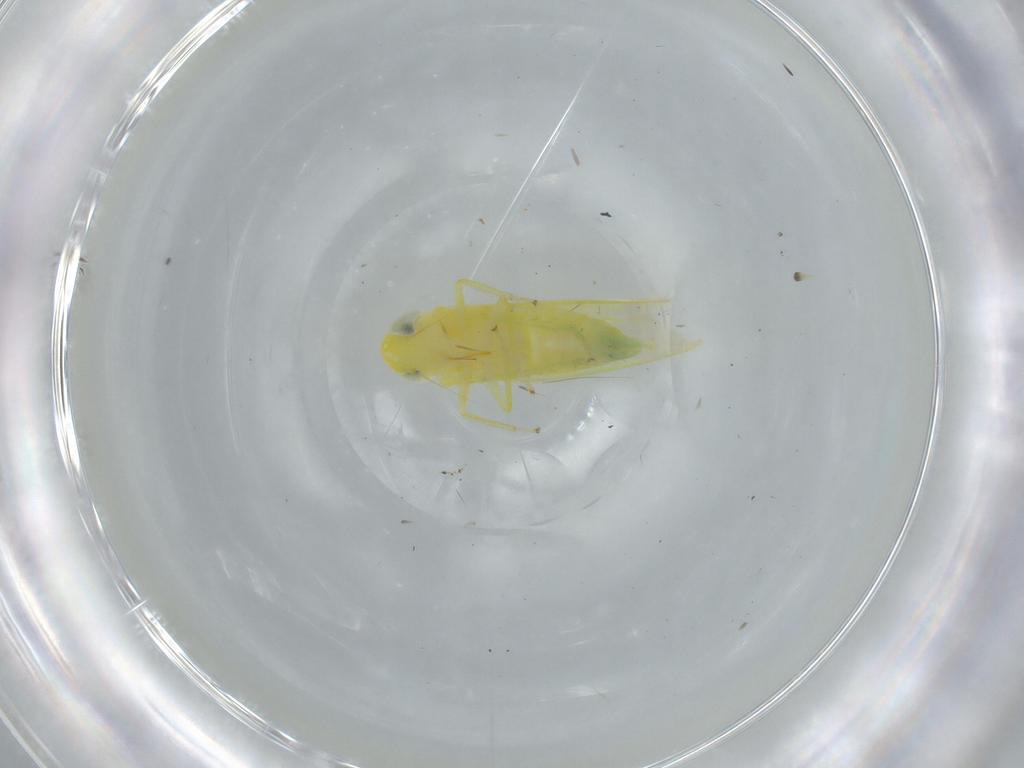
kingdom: Animalia
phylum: Arthropoda
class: Insecta
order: Hemiptera
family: Cicadellidae
